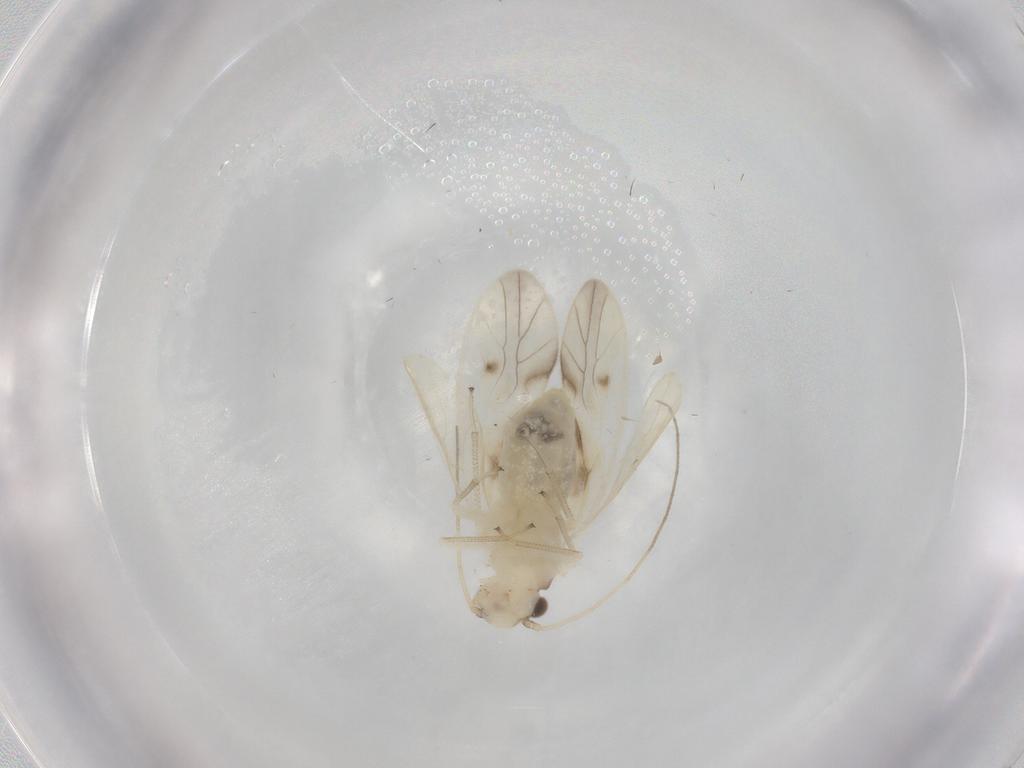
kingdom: Animalia
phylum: Arthropoda
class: Insecta
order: Psocodea
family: Caeciliusidae
